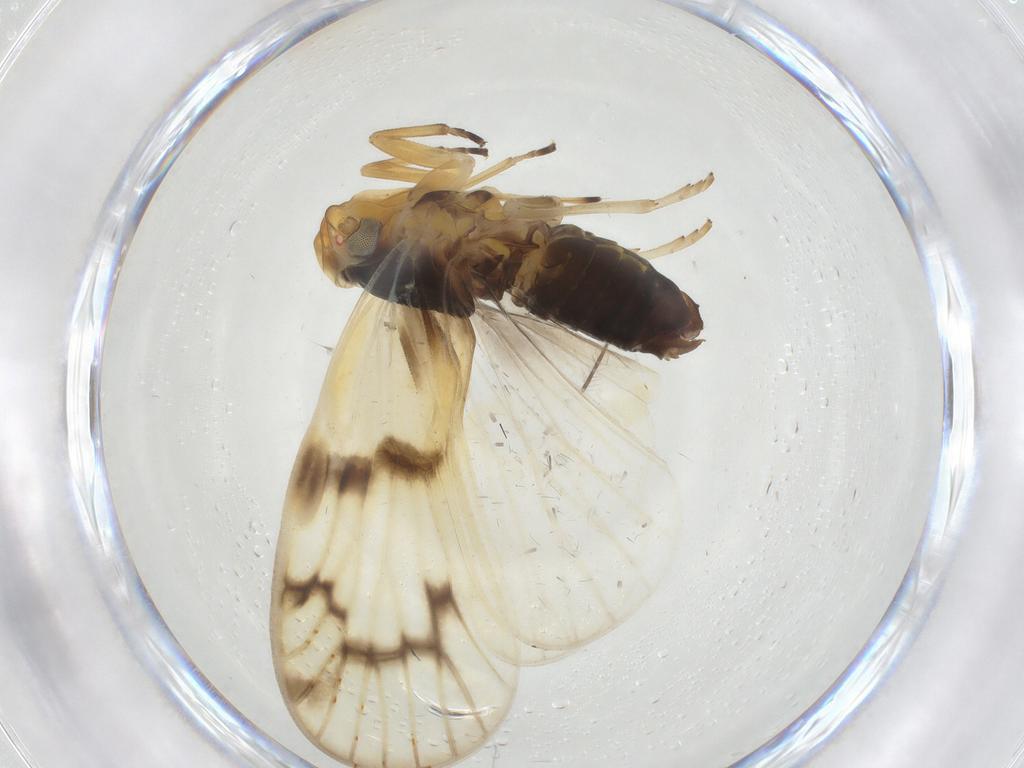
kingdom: Animalia
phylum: Arthropoda
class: Insecta
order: Hemiptera
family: Cixiidae
